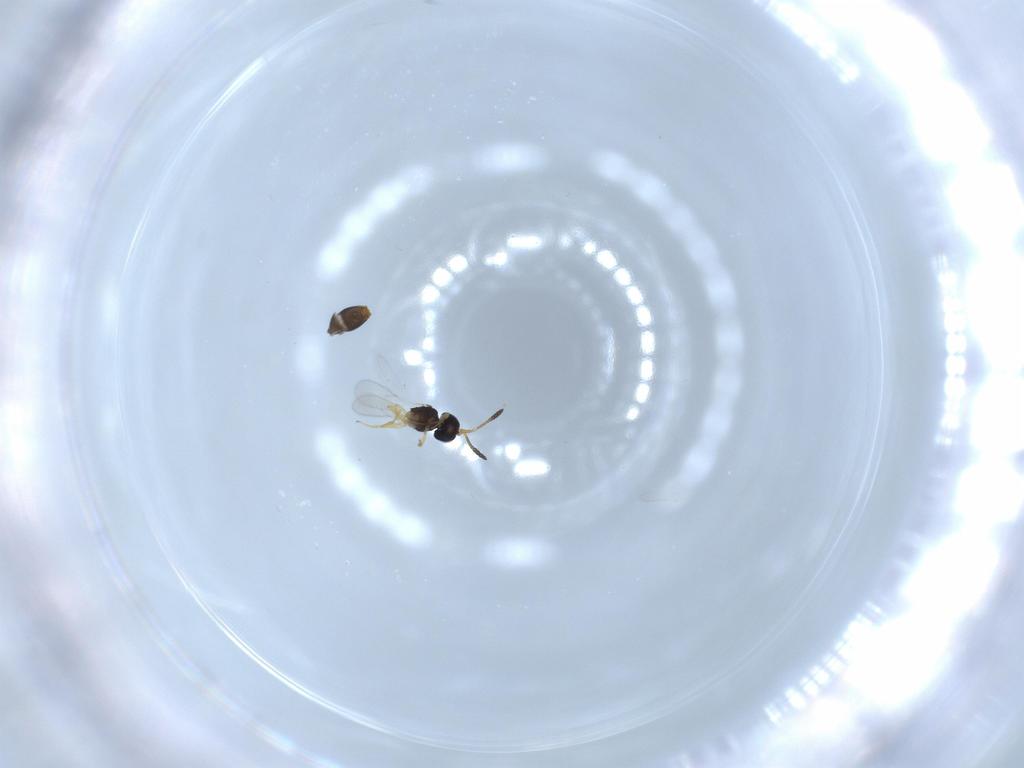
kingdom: Animalia
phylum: Arthropoda
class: Insecta
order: Hymenoptera
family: Scelionidae
